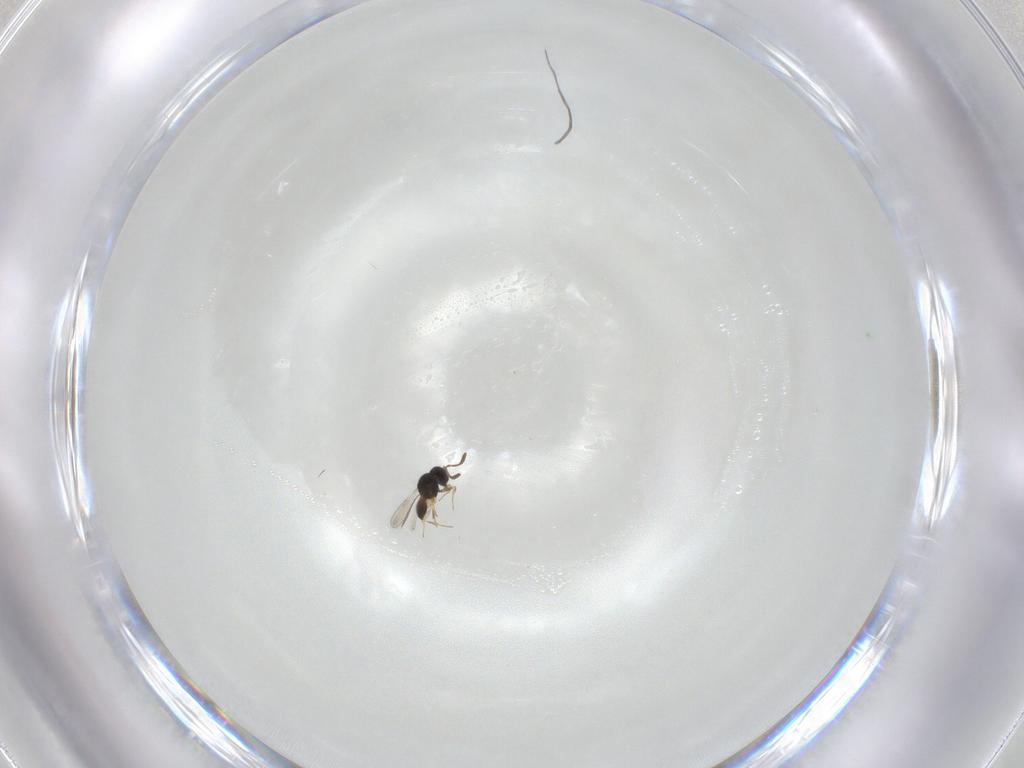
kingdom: Animalia
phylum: Arthropoda
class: Insecta
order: Hymenoptera
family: Scelionidae
